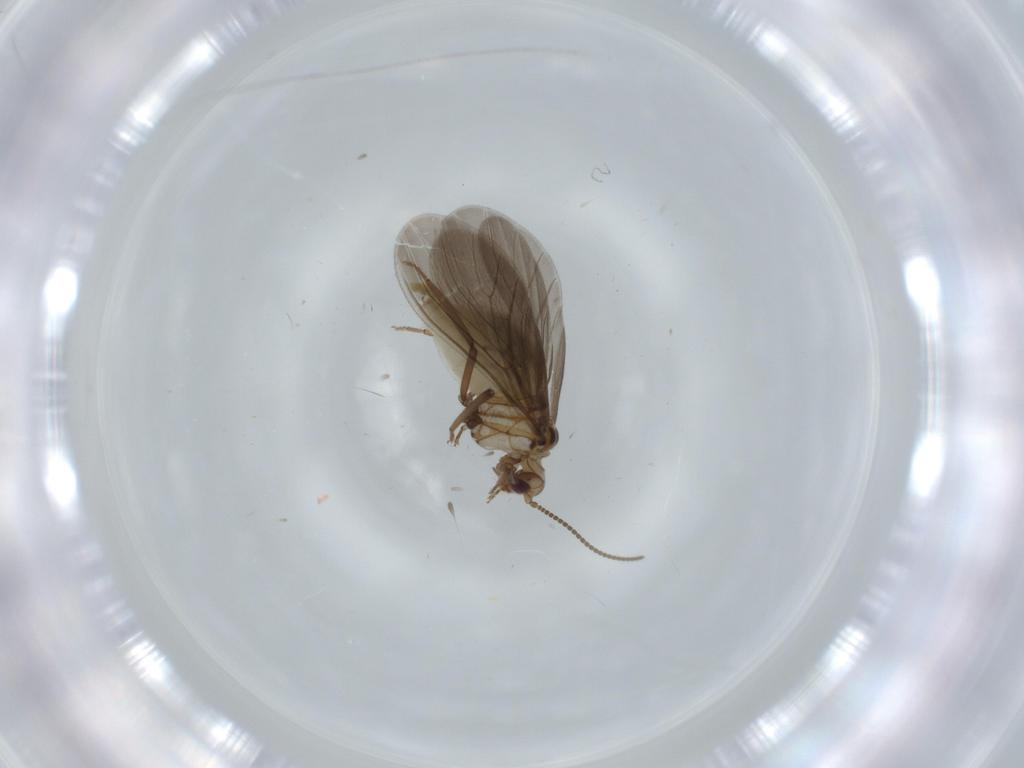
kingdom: Animalia
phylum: Arthropoda
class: Insecta
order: Neuroptera
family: Coniopterygidae
